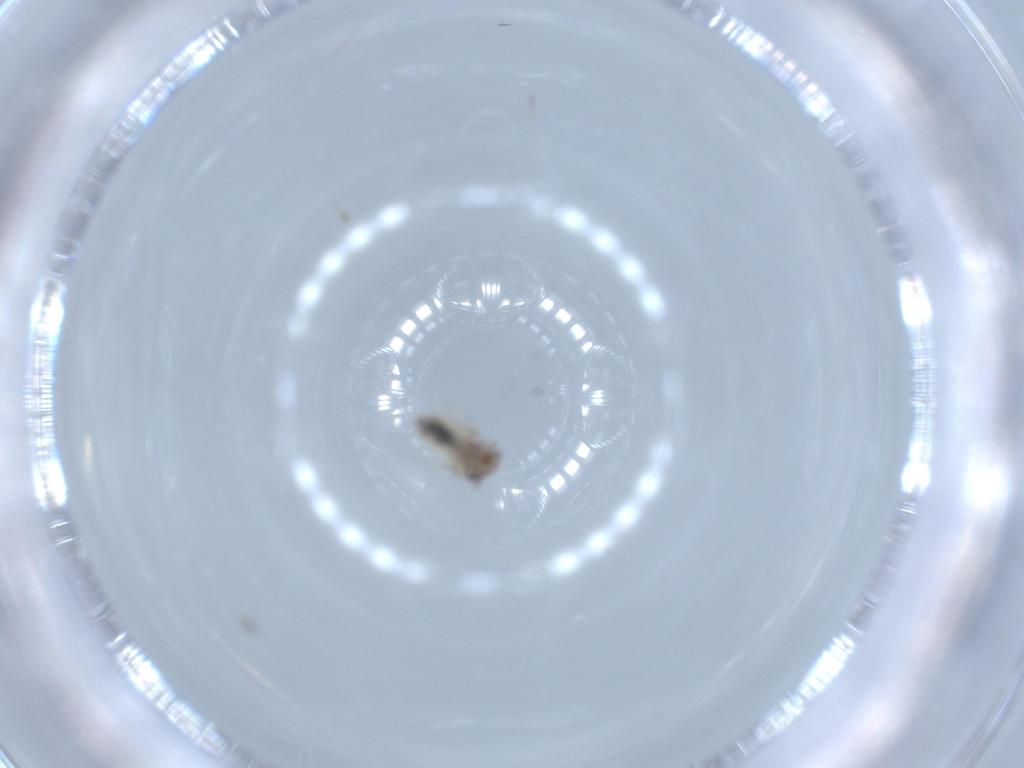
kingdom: Animalia
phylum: Arthropoda
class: Insecta
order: Psocodea
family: Lepidopsocidae
